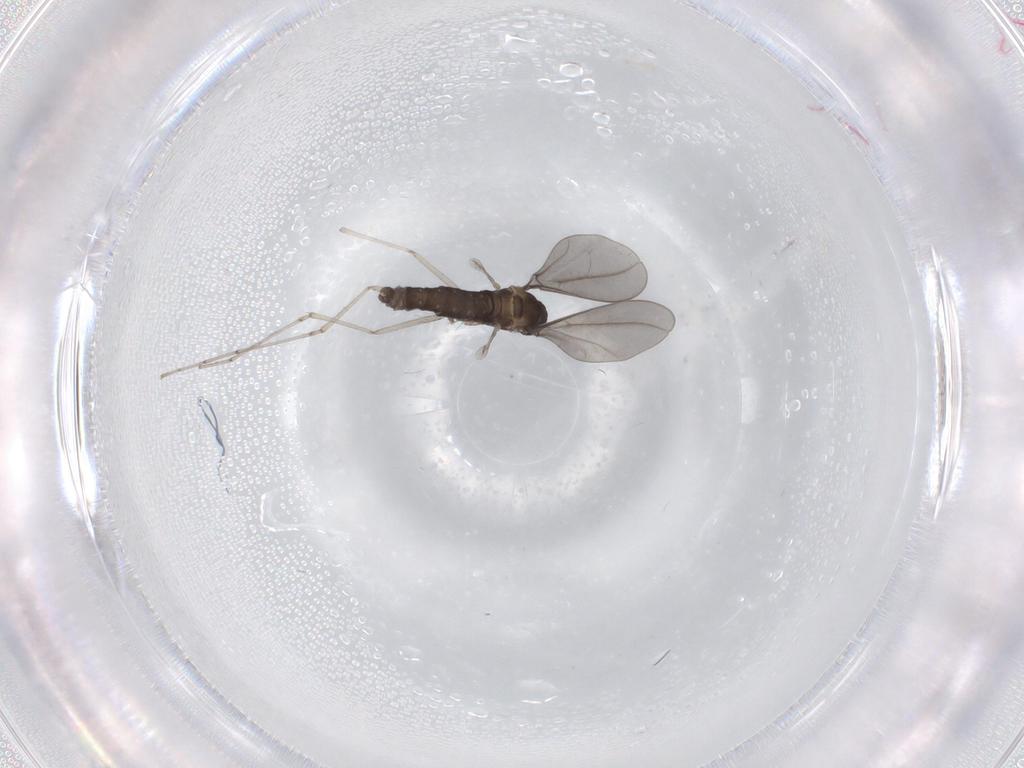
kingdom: Animalia
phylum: Arthropoda
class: Insecta
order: Diptera
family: Cecidomyiidae
